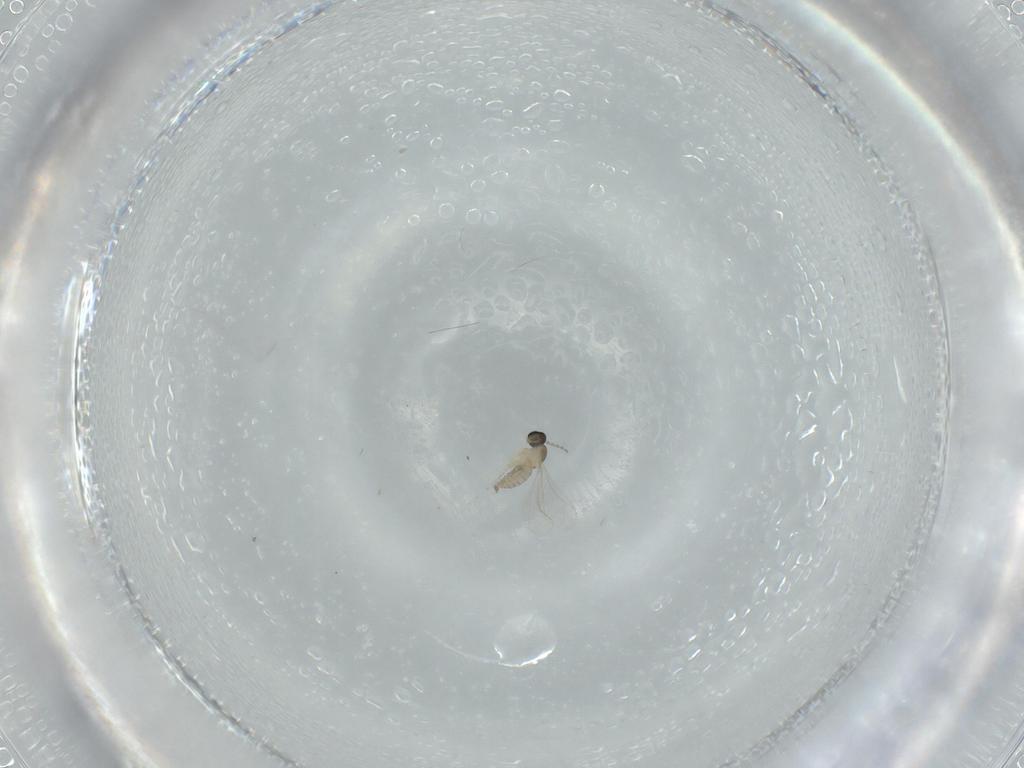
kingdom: Animalia
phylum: Arthropoda
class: Insecta
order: Diptera
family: Cecidomyiidae
